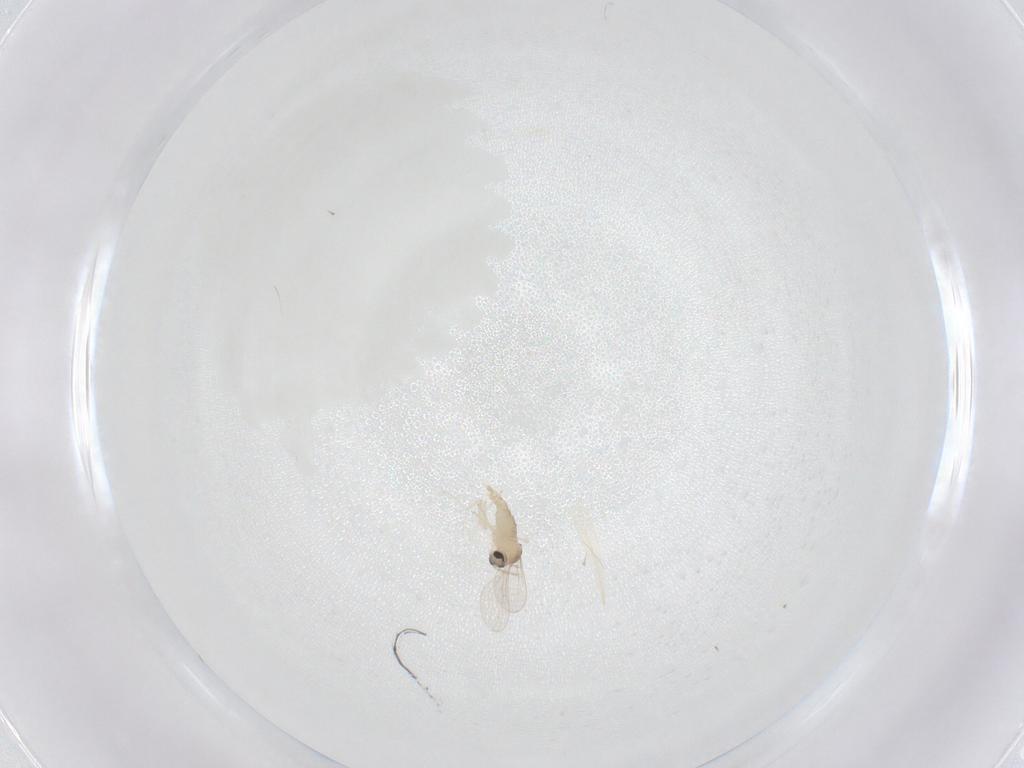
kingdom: Animalia
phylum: Arthropoda
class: Insecta
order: Diptera
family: Cecidomyiidae
